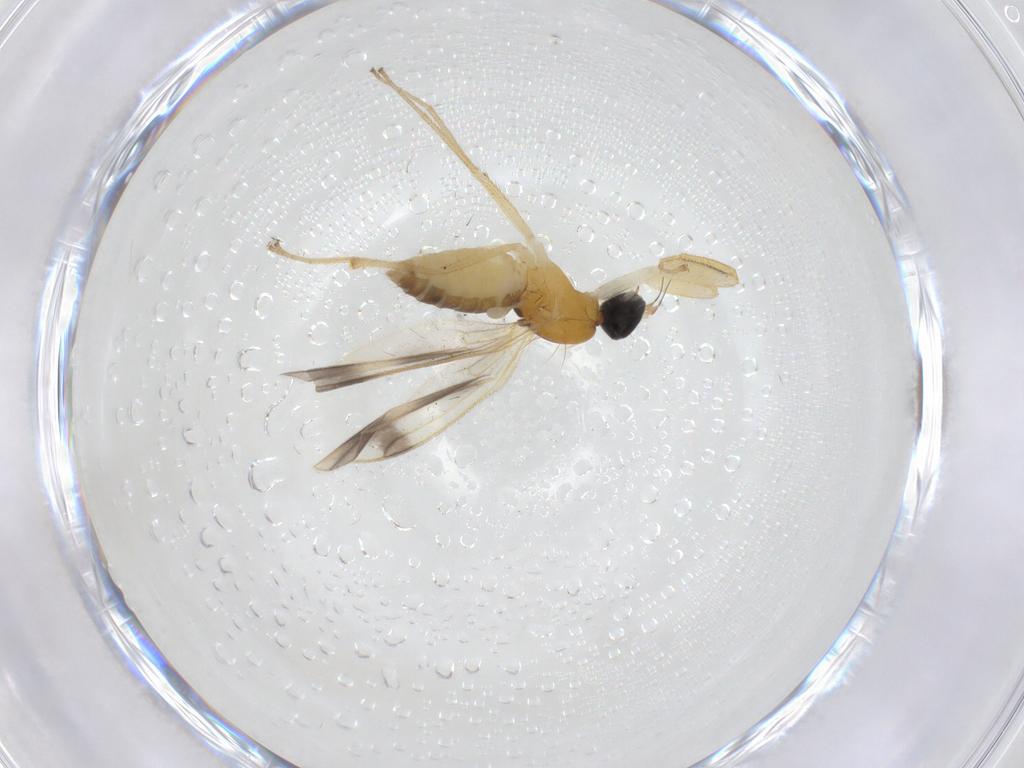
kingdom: Animalia
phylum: Arthropoda
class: Insecta
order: Diptera
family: Empididae
